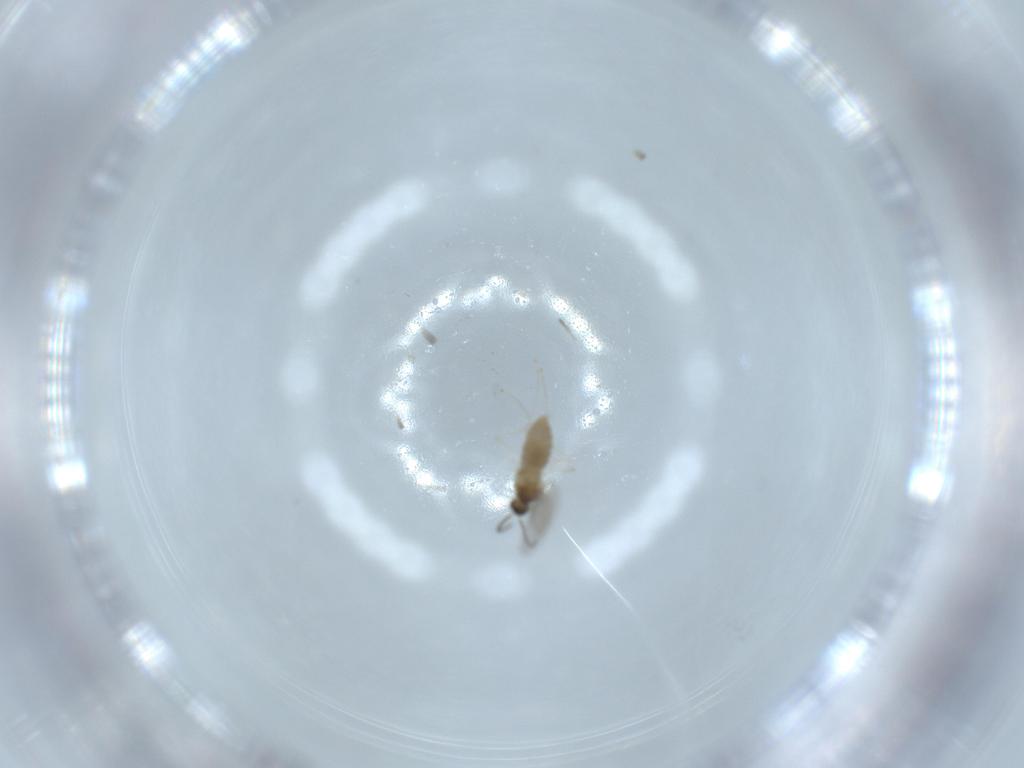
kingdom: Animalia
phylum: Arthropoda
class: Insecta
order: Diptera
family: Cecidomyiidae
